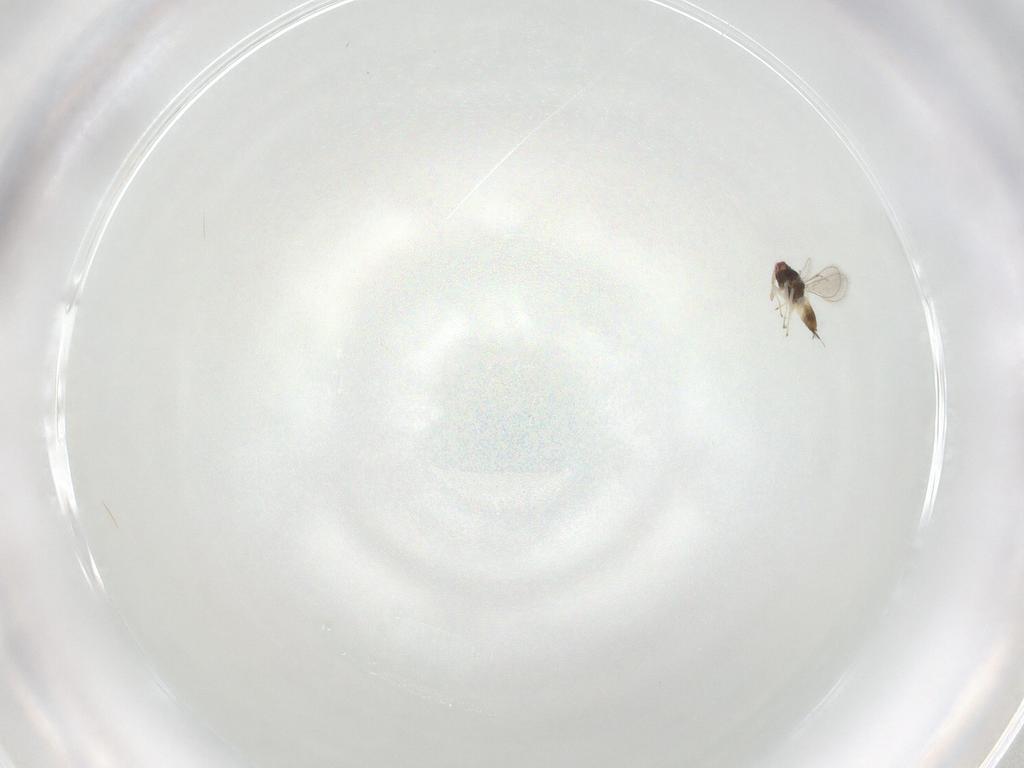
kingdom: Animalia
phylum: Arthropoda
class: Insecta
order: Hymenoptera
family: Eulophidae
